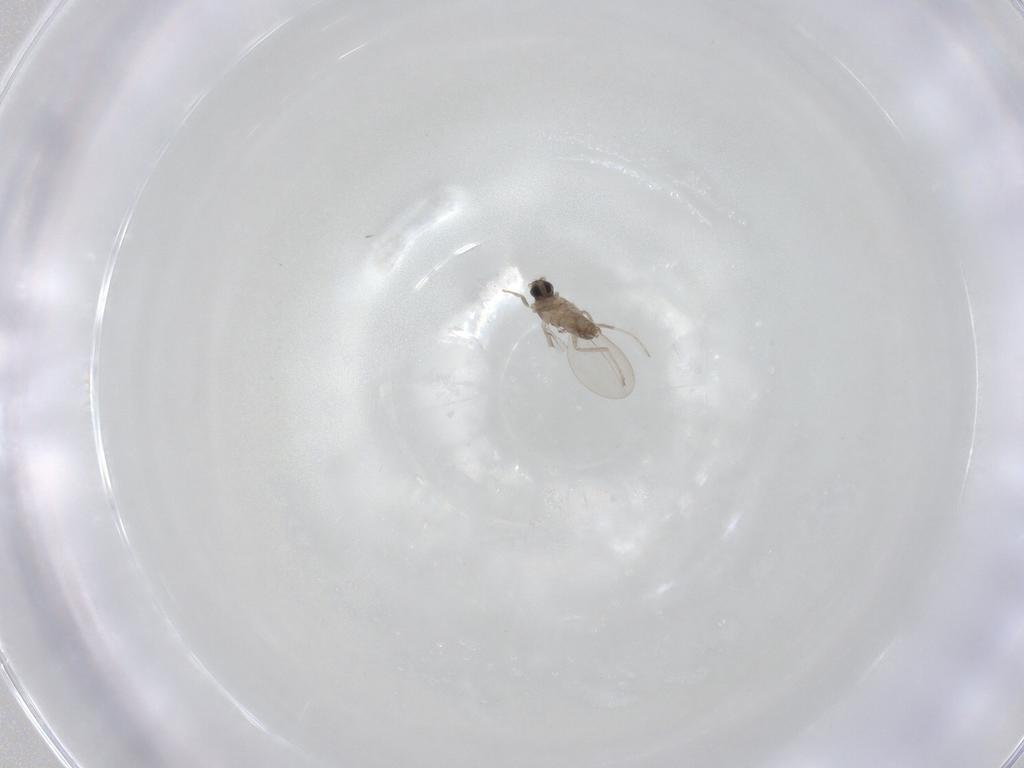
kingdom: Animalia
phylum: Arthropoda
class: Insecta
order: Diptera
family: Cecidomyiidae
